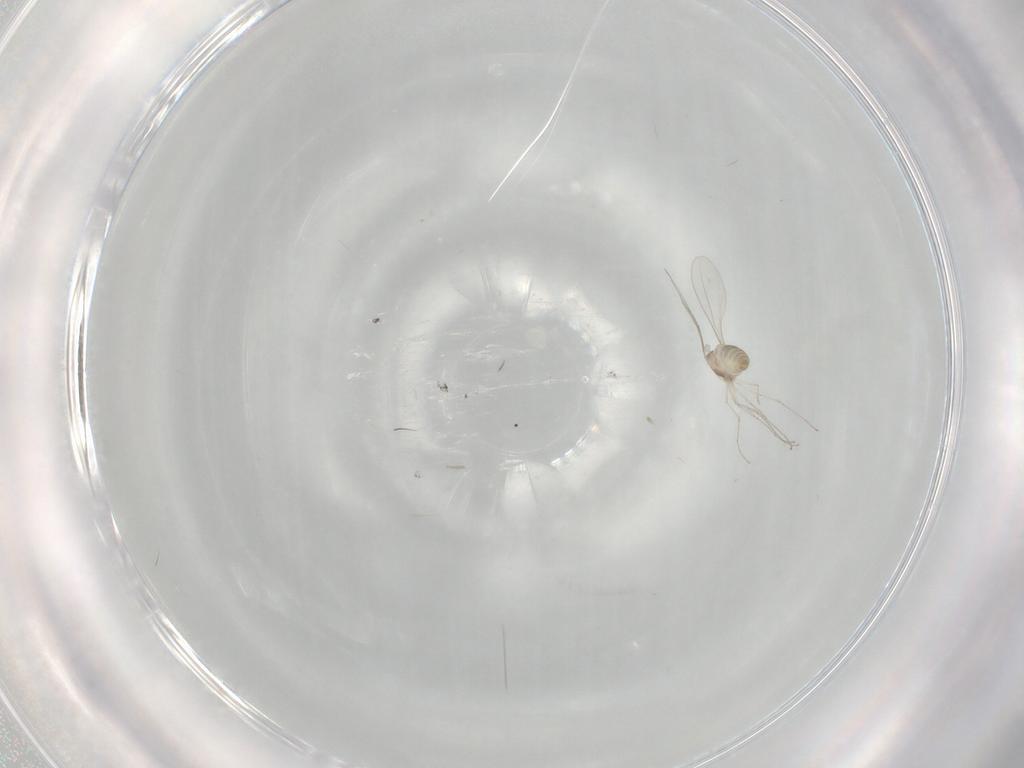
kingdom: Animalia
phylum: Arthropoda
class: Insecta
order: Diptera
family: Cecidomyiidae
